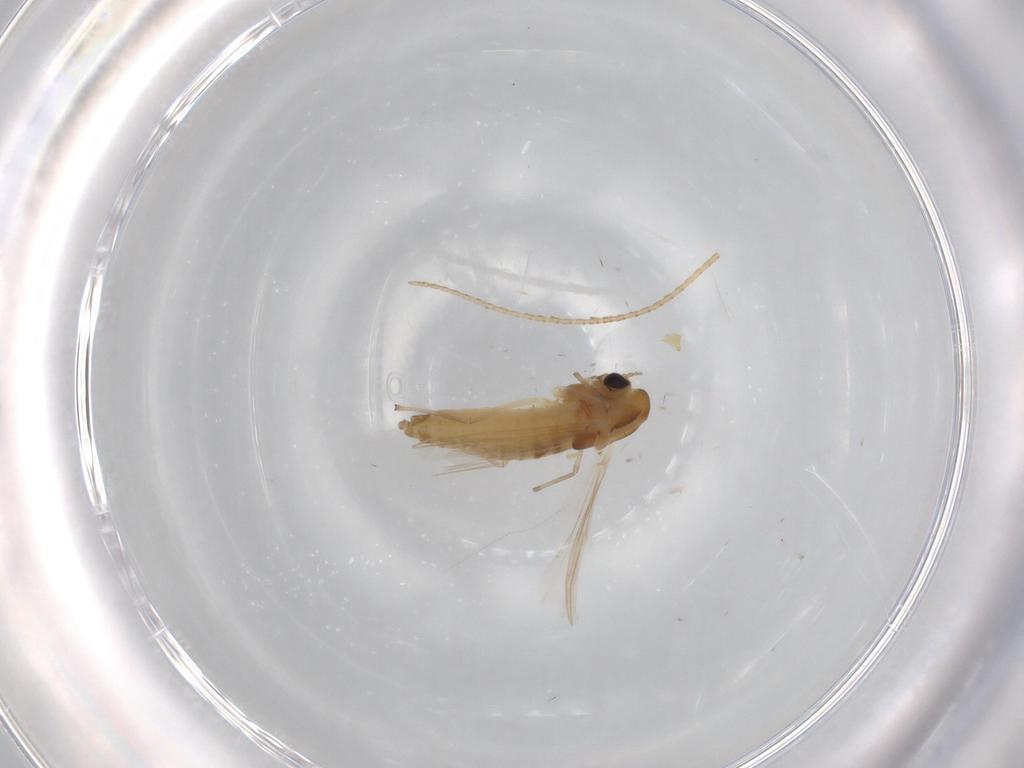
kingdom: Animalia
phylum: Arthropoda
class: Insecta
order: Diptera
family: Chironomidae
